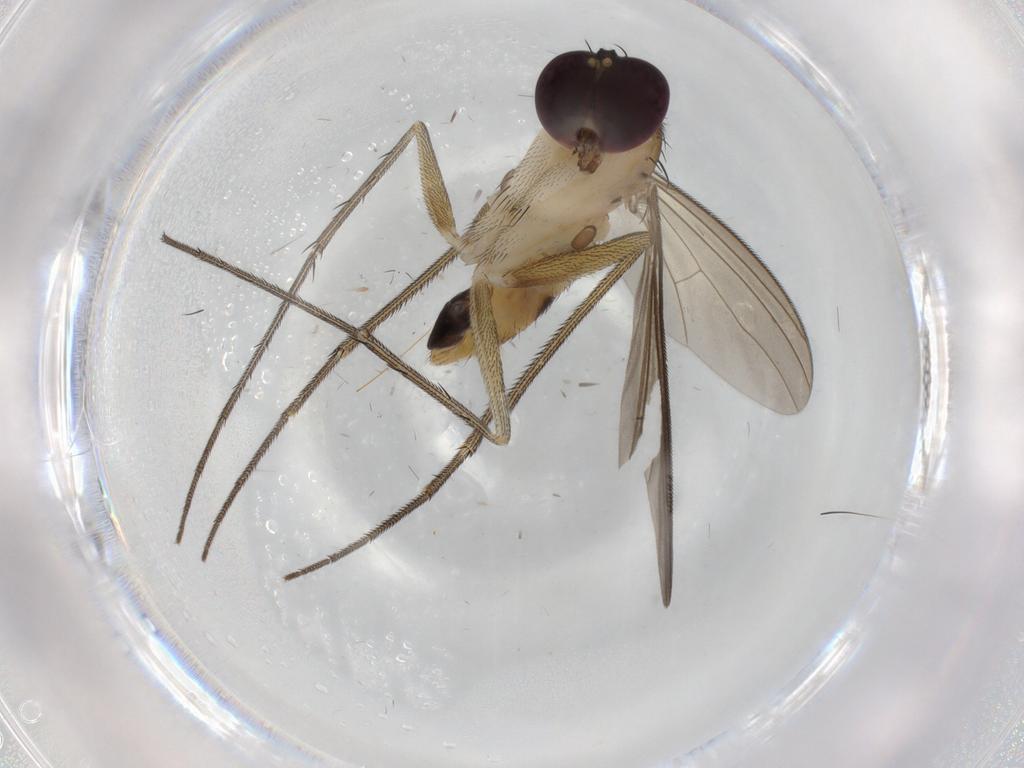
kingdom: Animalia
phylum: Arthropoda
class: Insecta
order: Diptera
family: Dolichopodidae
